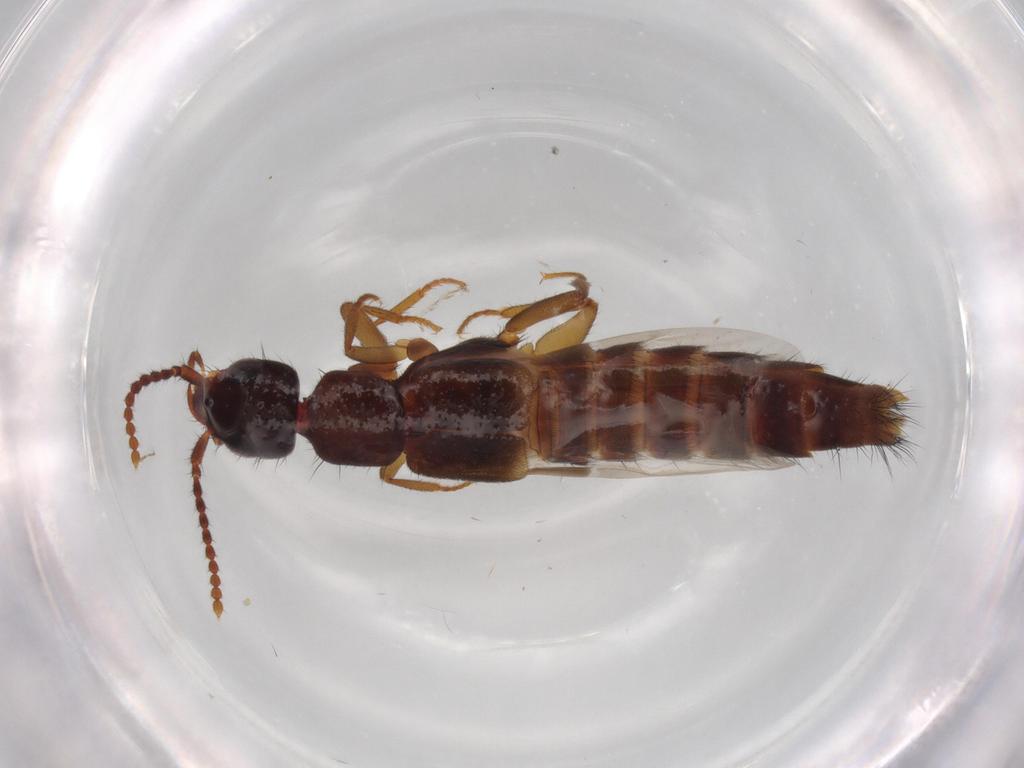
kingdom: Animalia
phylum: Arthropoda
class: Insecta
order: Coleoptera
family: Staphylinidae
